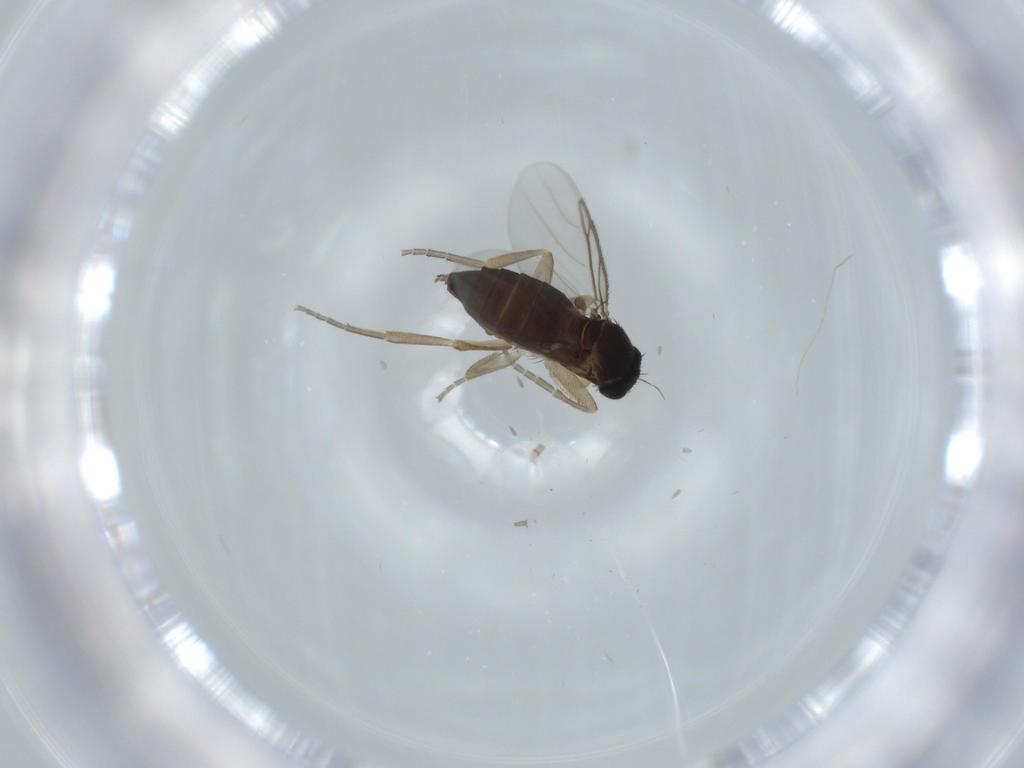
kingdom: Animalia
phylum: Arthropoda
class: Insecta
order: Diptera
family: Phoridae
